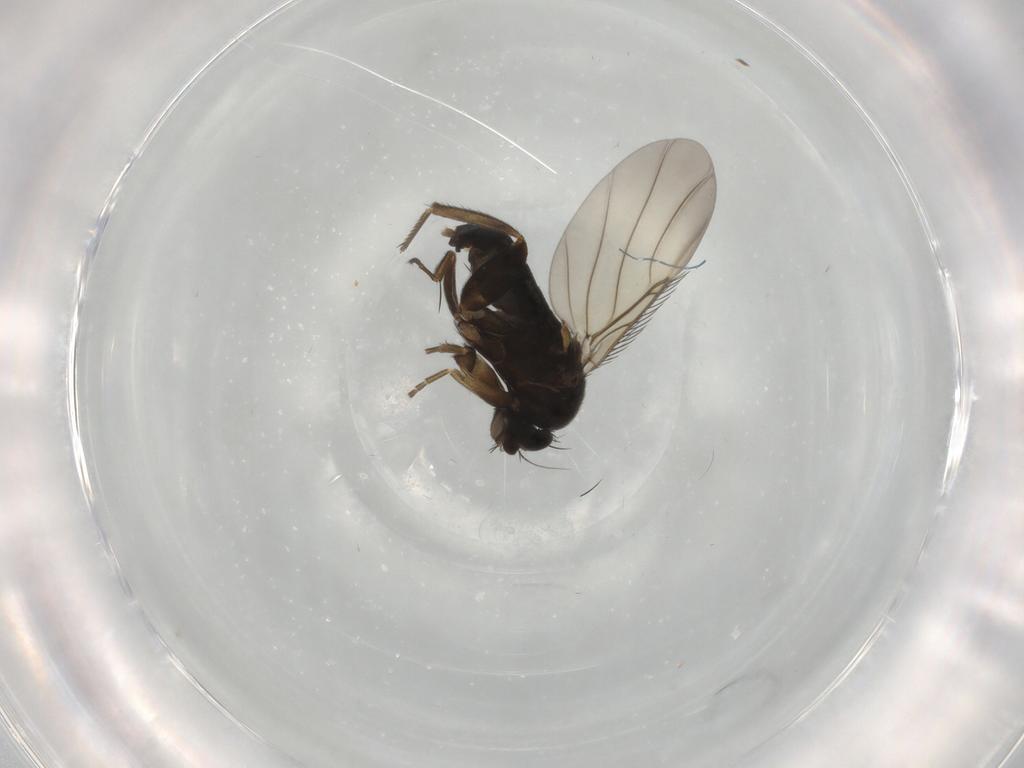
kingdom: Animalia
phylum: Arthropoda
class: Insecta
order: Diptera
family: Phoridae
